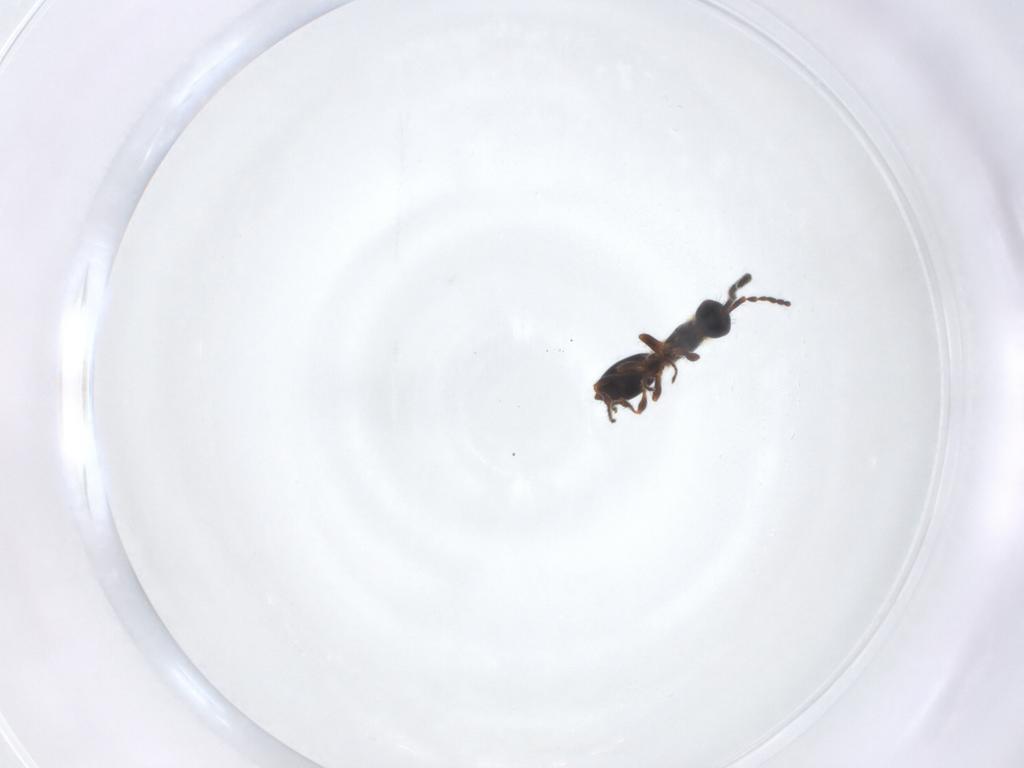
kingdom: Animalia
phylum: Arthropoda
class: Insecta
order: Hymenoptera
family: Diapriidae
